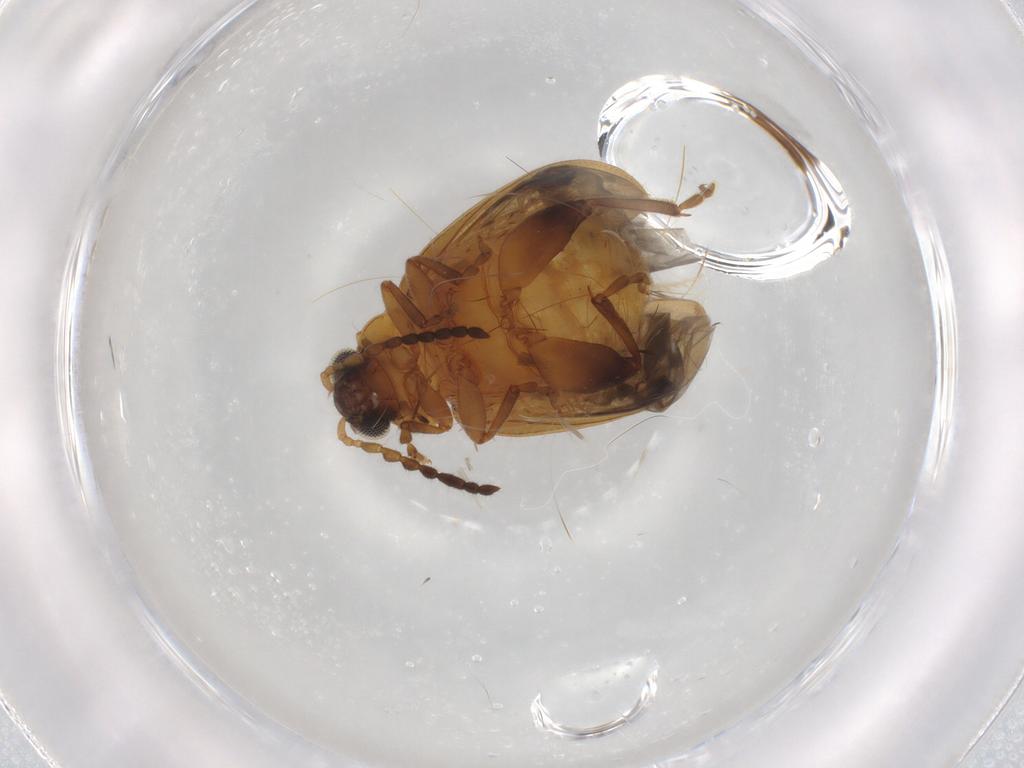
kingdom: Animalia
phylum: Arthropoda
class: Insecta
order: Coleoptera
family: Chrysomelidae
